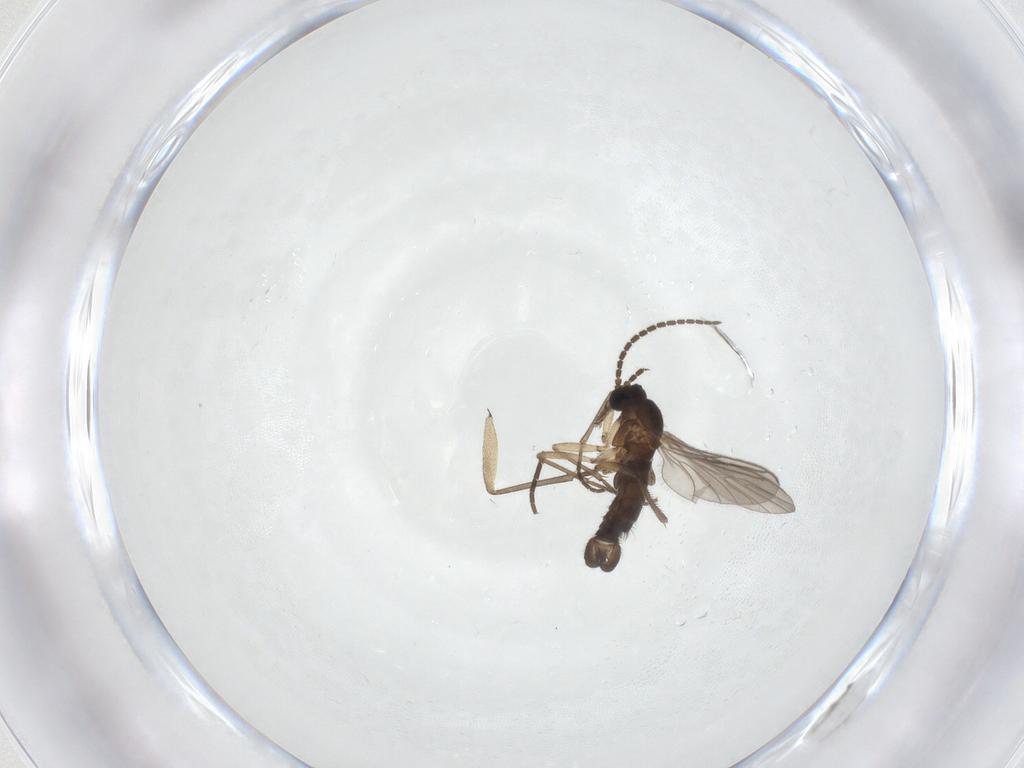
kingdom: Animalia
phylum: Arthropoda
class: Insecta
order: Diptera
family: Sciaridae
